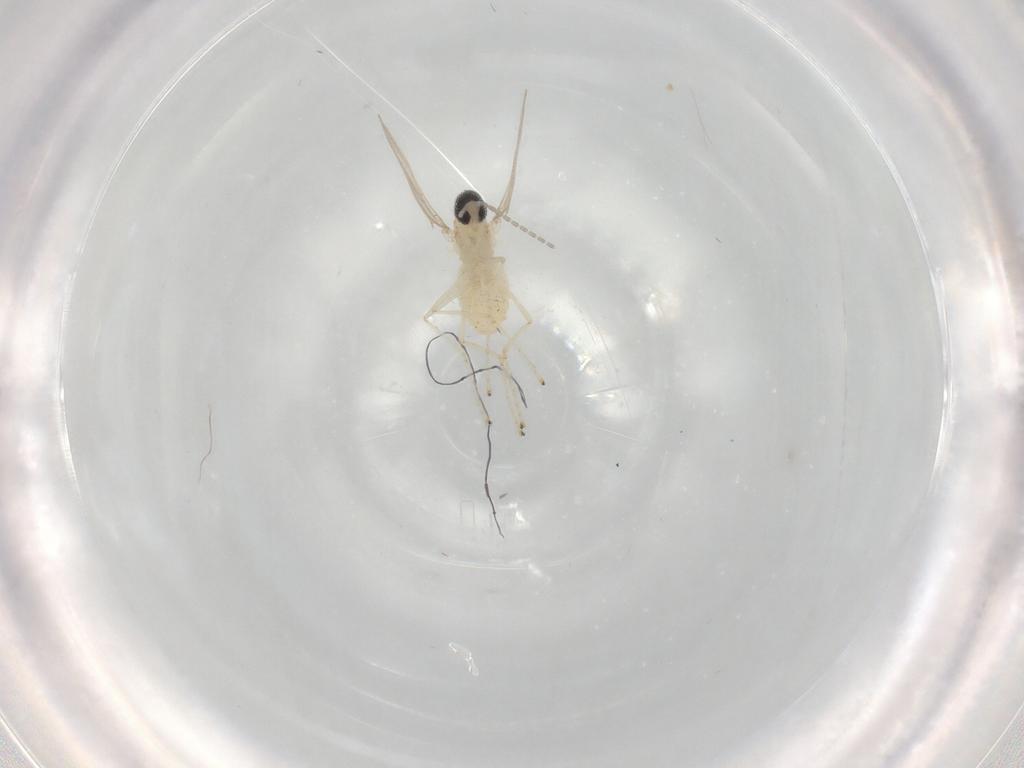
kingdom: Animalia
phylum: Arthropoda
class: Insecta
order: Diptera
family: Cecidomyiidae
